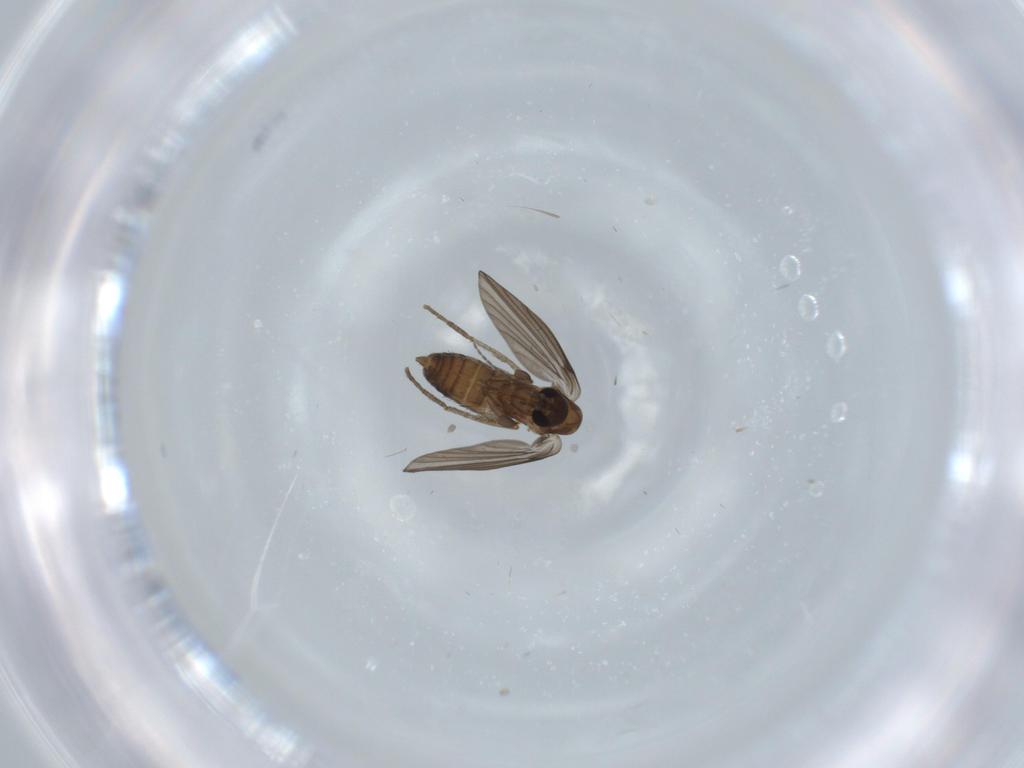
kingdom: Animalia
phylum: Arthropoda
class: Insecta
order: Diptera
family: Psychodidae
